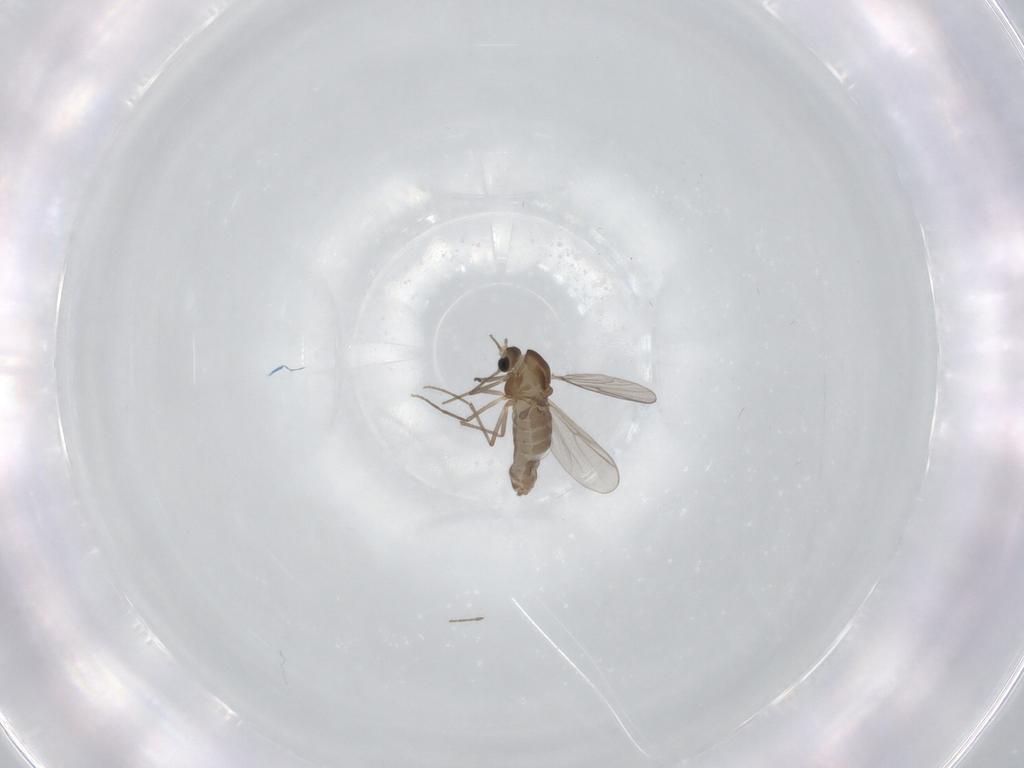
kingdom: Animalia
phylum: Arthropoda
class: Insecta
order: Diptera
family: Chironomidae
